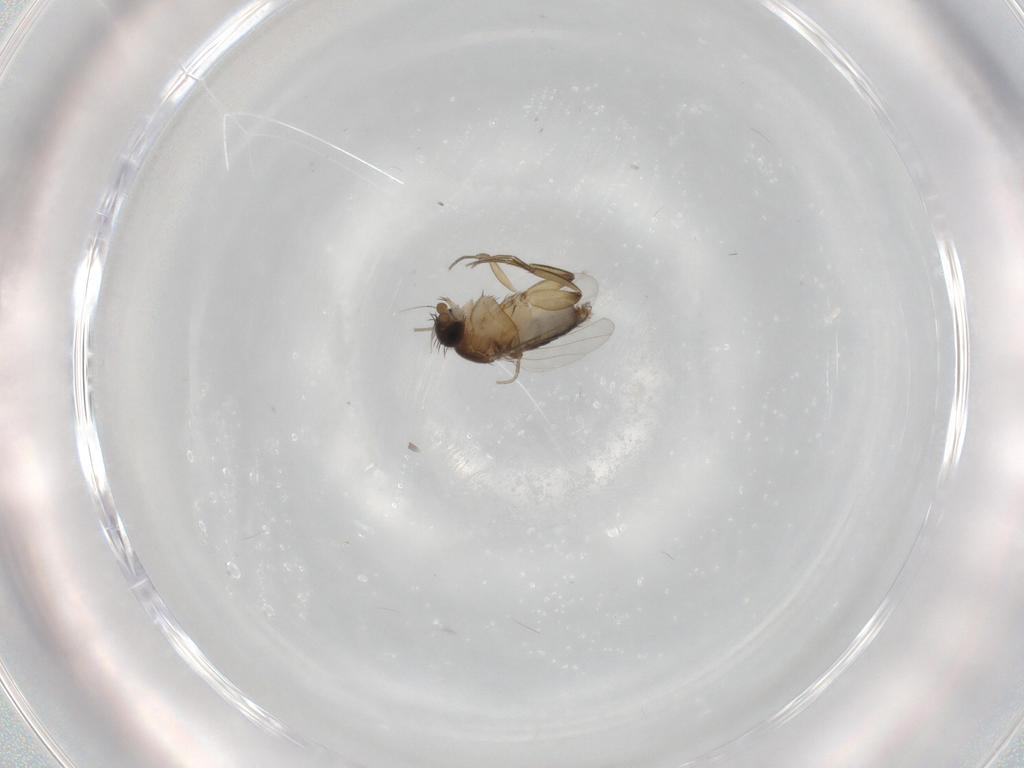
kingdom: Animalia
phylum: Arthropoda
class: Insecta
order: Diptera
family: Phoridae
